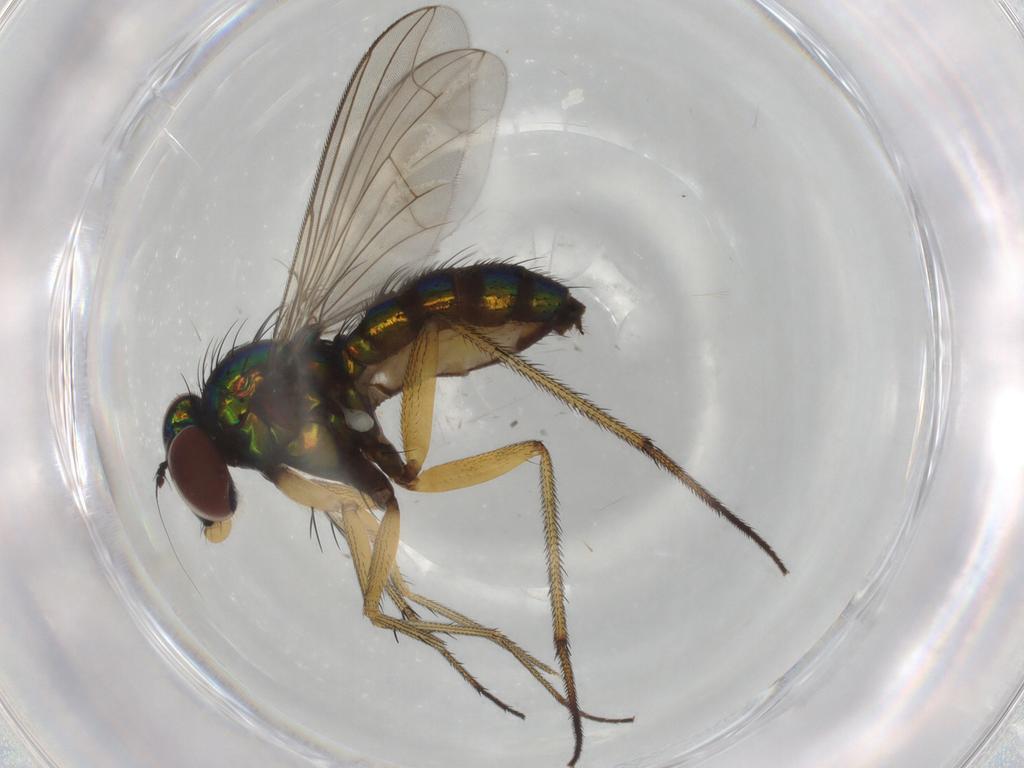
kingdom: Animalia
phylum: Arthropoda
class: Insecta
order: Diptera
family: Dolichopodidae
